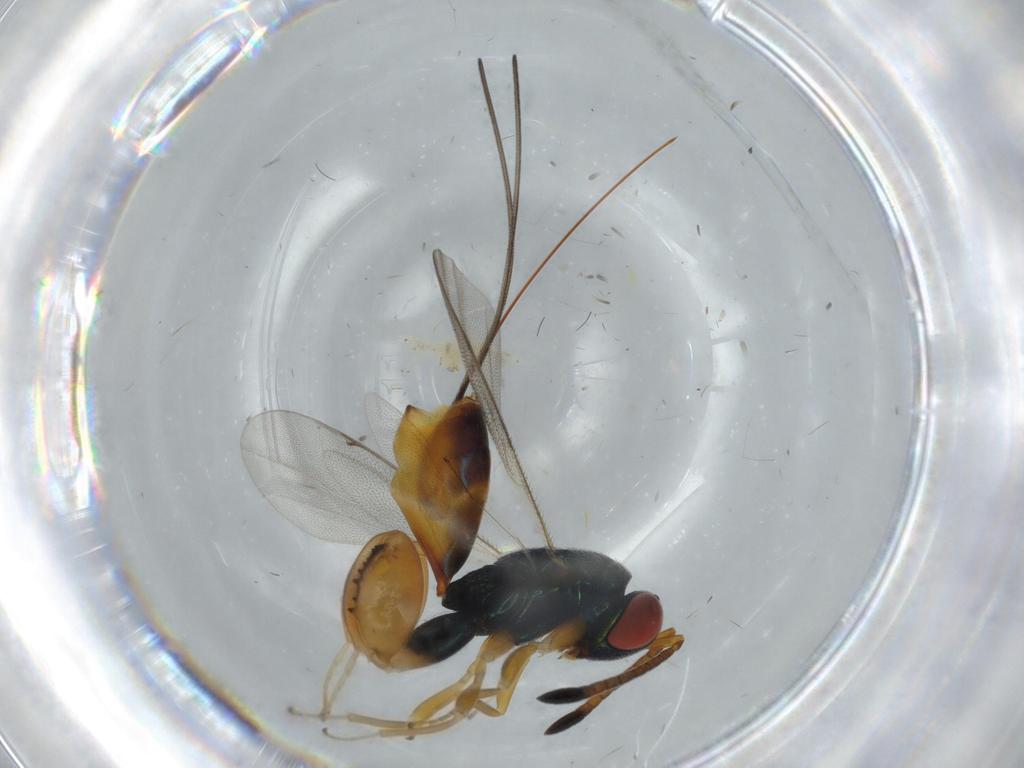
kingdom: Animalia
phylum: Arthropoda
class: Insecta
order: Hymenoptera
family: Torymidae
